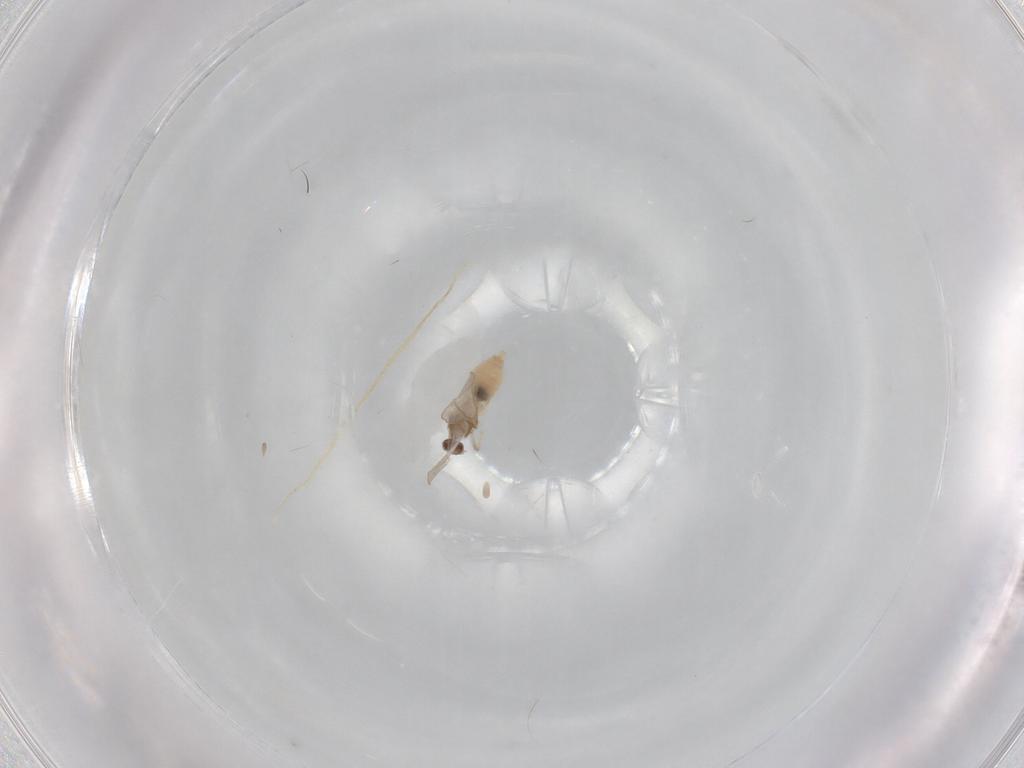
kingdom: Animalia
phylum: Arthropoda
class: Insecta
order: Diptera
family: Cecidomyiidae
